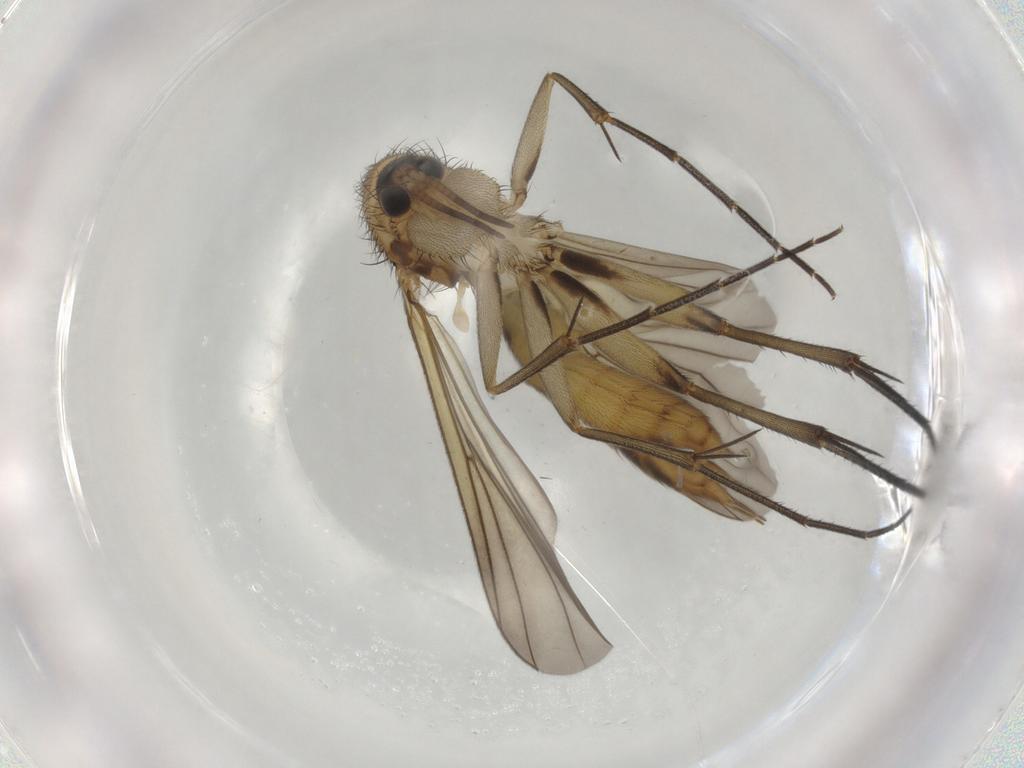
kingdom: Animalia
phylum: Arthropoda
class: Insecta
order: Diptera
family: Mycetophilidae
